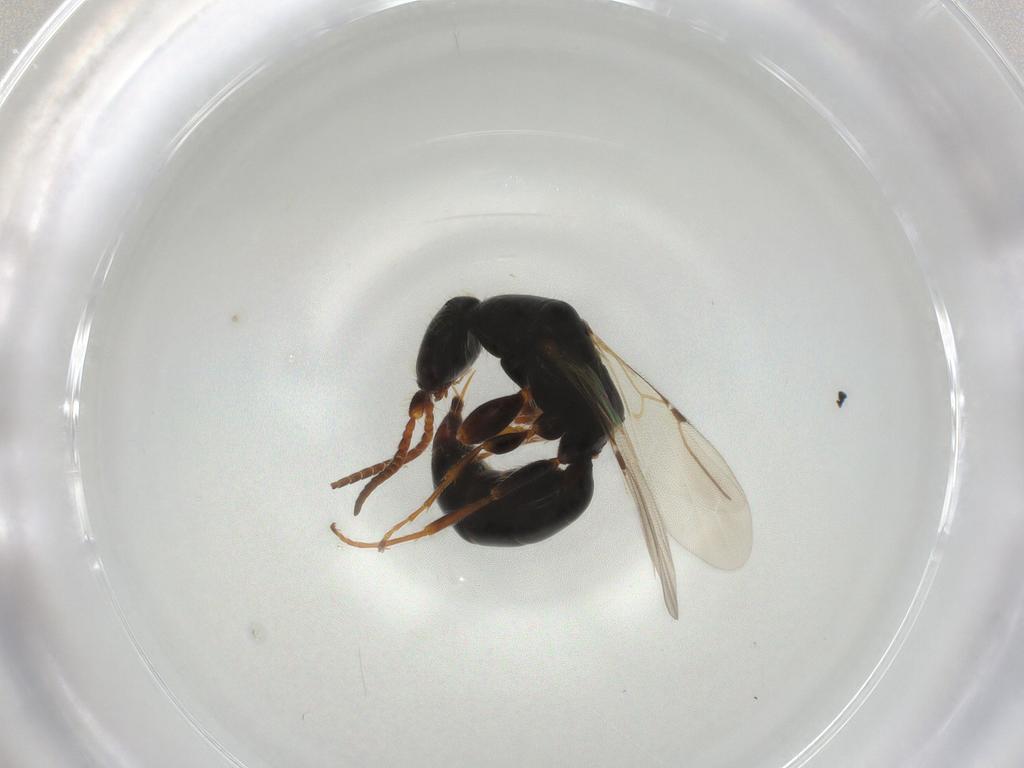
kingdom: Animalia
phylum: Arthropoda
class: Insecta
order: Hymenoptera
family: Bethylidae
